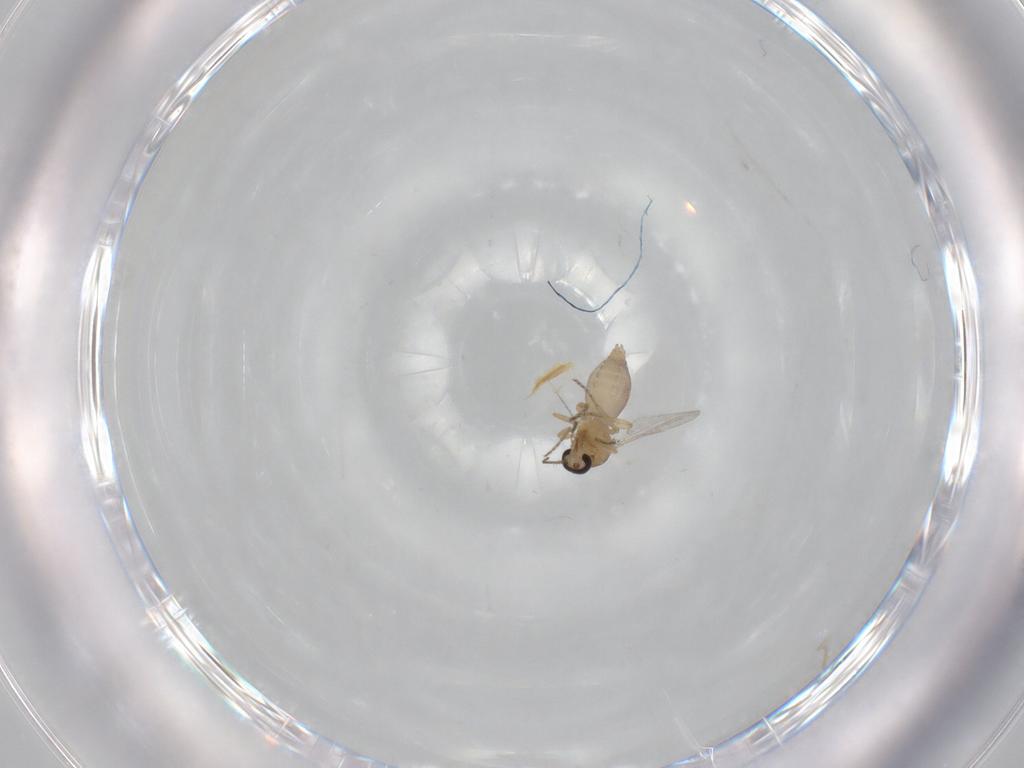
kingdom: Animalia
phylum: Arthropoda
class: Insecta
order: Diptera
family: Ceratopogonidae
